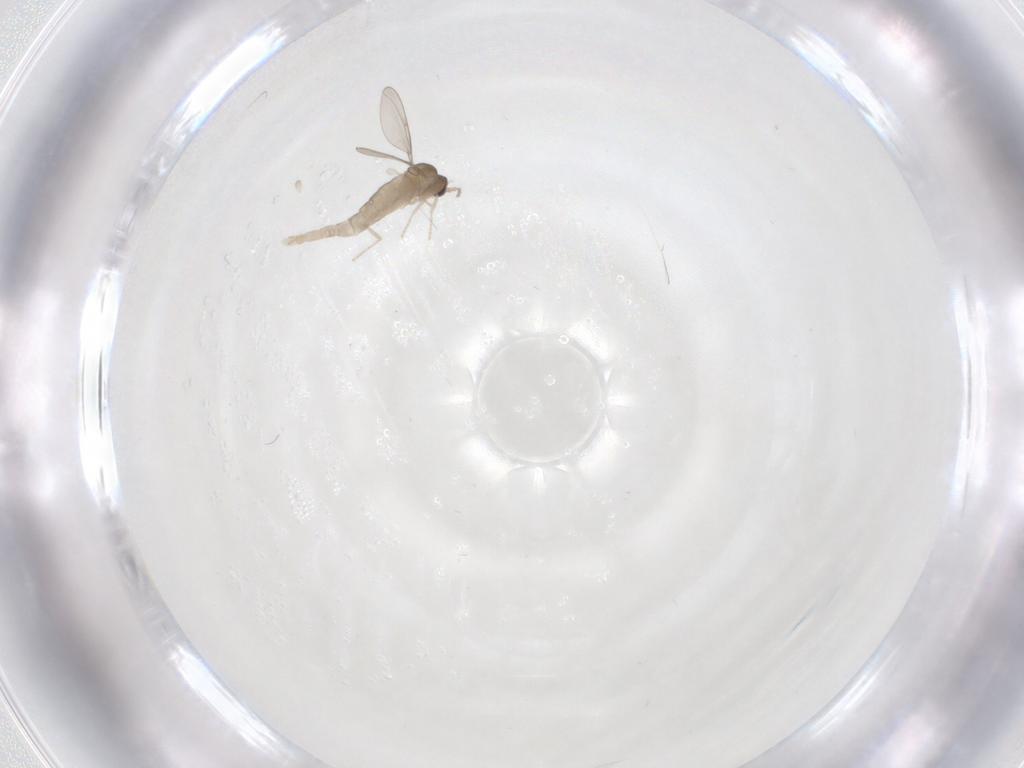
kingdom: Animalia
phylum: Arthropoda
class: Insecta
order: Diptera
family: Cecidomyiidae
